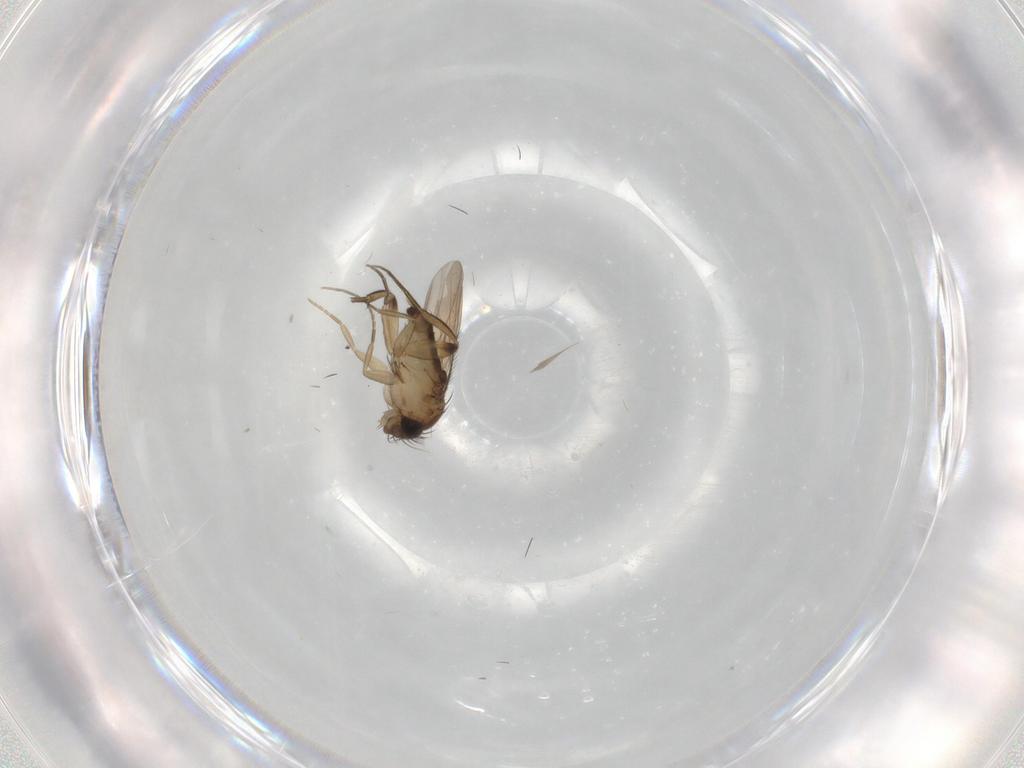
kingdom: Animalia
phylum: Arthropoda
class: Insecta
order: Diptera
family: Phoridae
